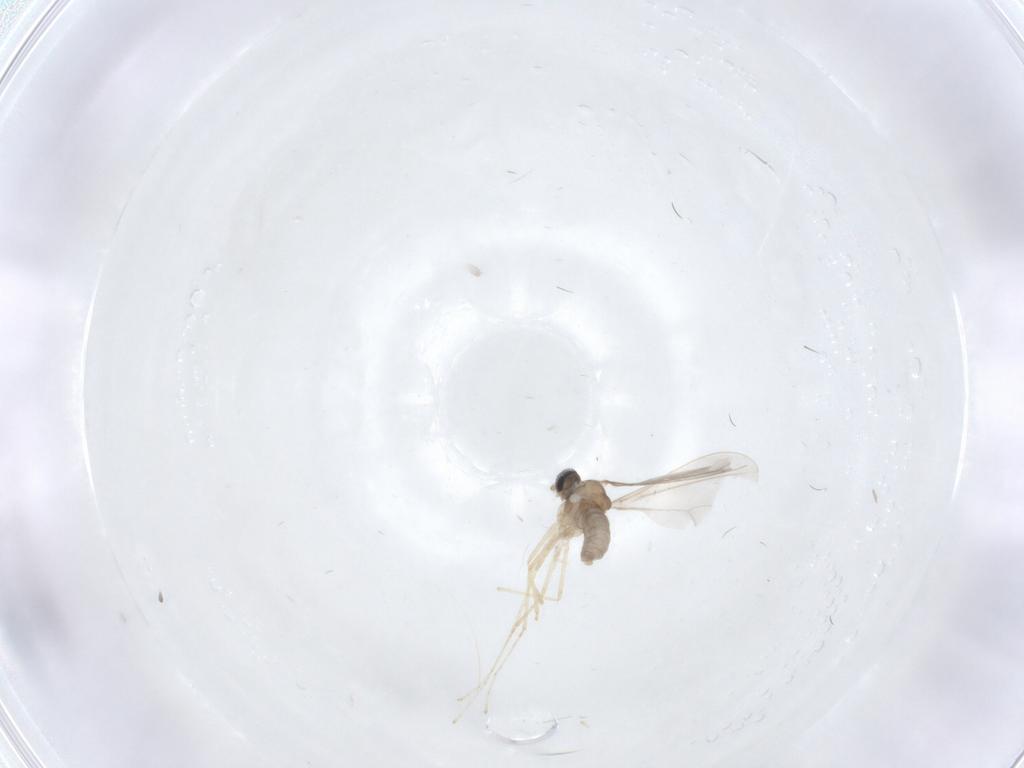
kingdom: Animalia
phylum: Arthropoda
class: Insecta
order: Diptera
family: Cecidomyiidae
